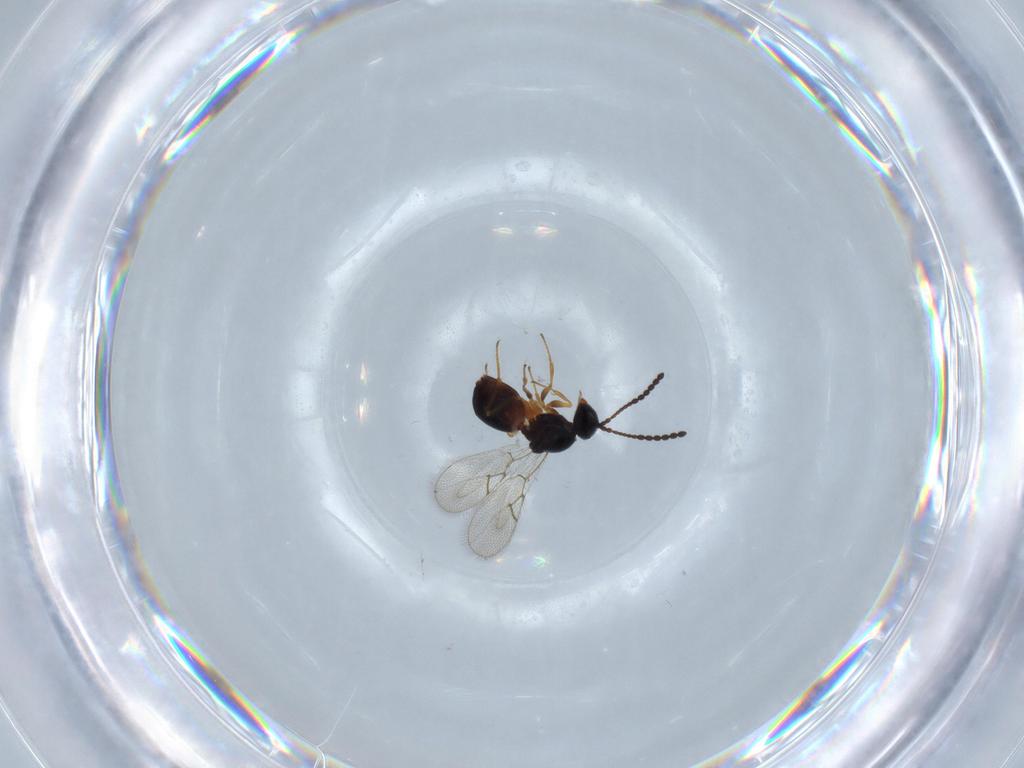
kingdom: Animalia
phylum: Arthropoda
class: Insecta
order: Hymenoptera
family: Figitidae
